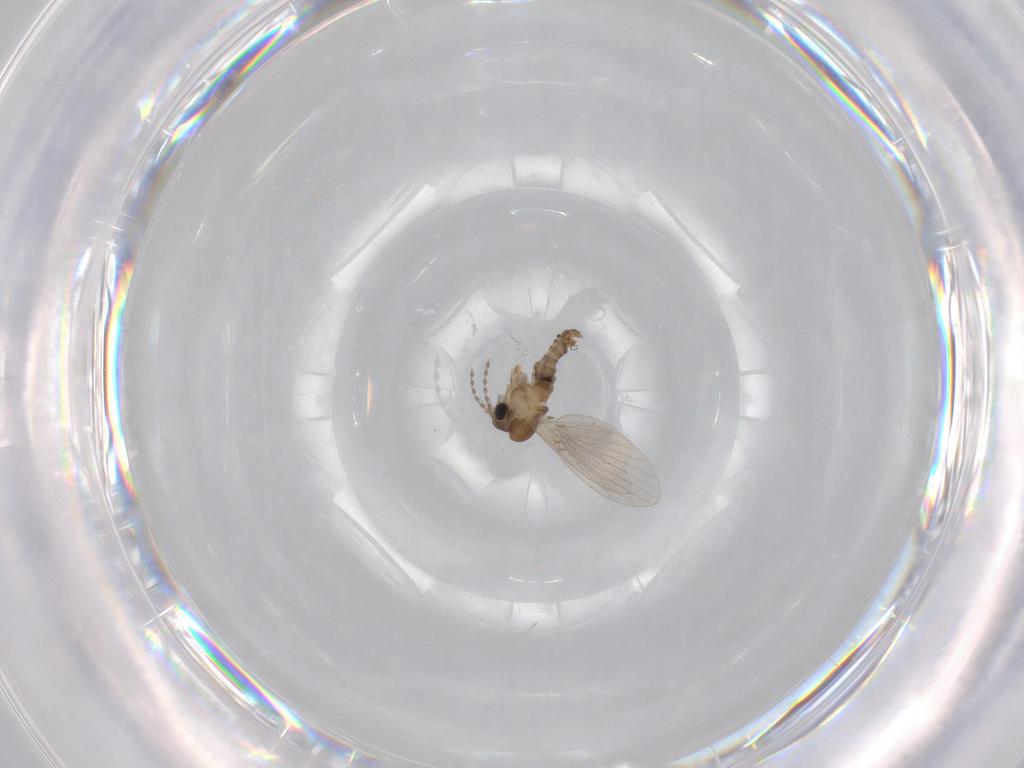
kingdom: Animalia
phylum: Arthropoda
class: Insecta
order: Diptera
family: Psychodidae
